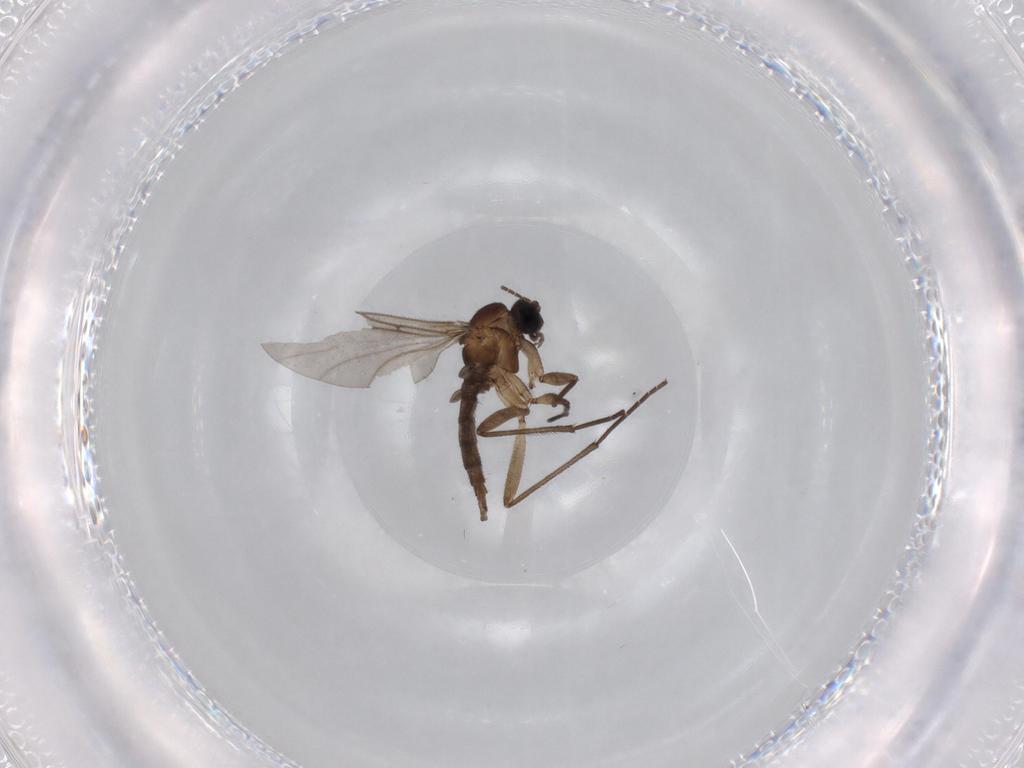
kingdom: Animalia
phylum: Arthropoda
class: Insecta
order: Diptera
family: Sciaridae
